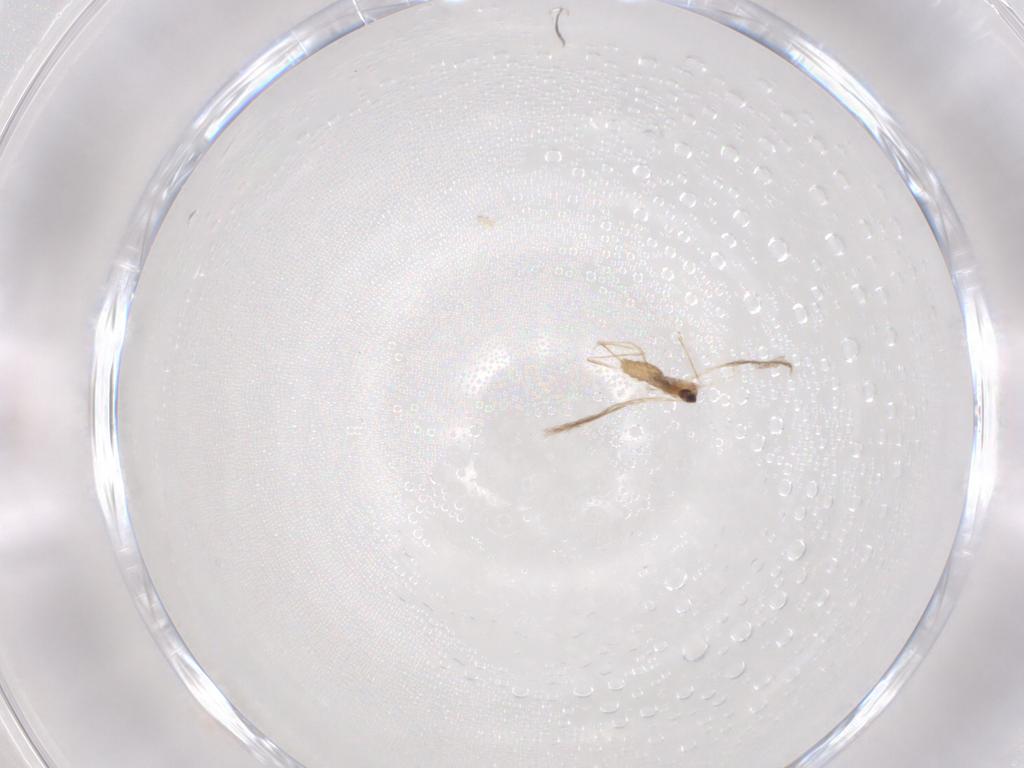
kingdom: Animalia
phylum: Arthropoda
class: Insecta
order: Diptera
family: Cecidomyiidae
